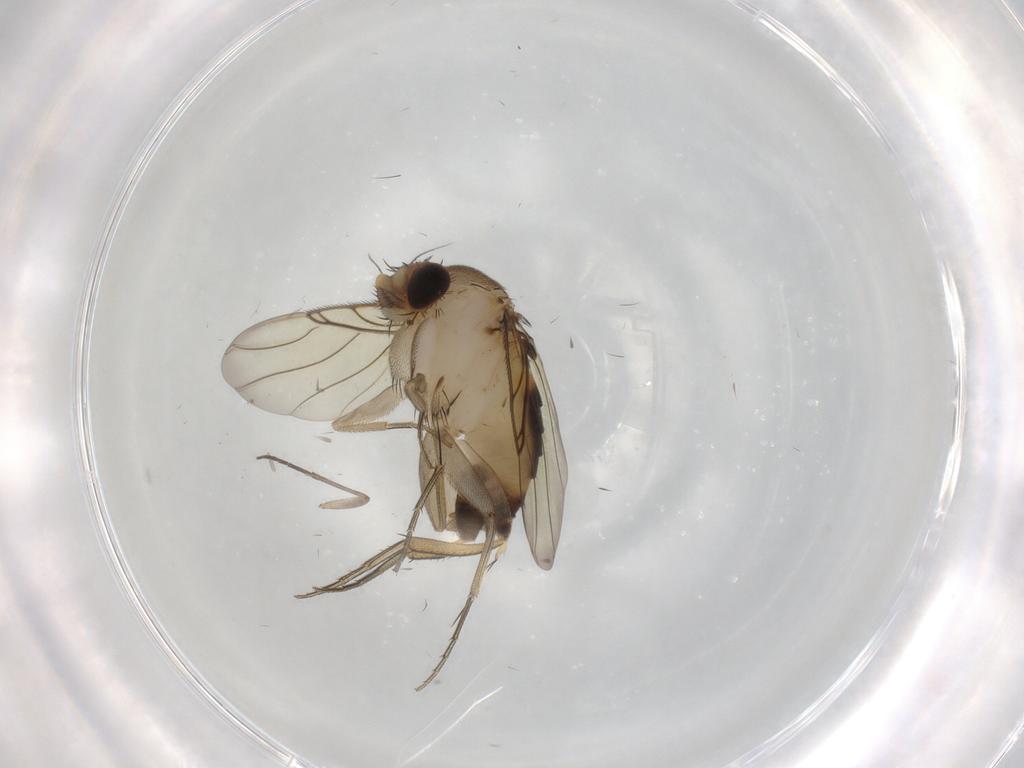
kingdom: Animalia
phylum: Arthropoda
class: Insecta
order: Diptera
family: Phoridae
